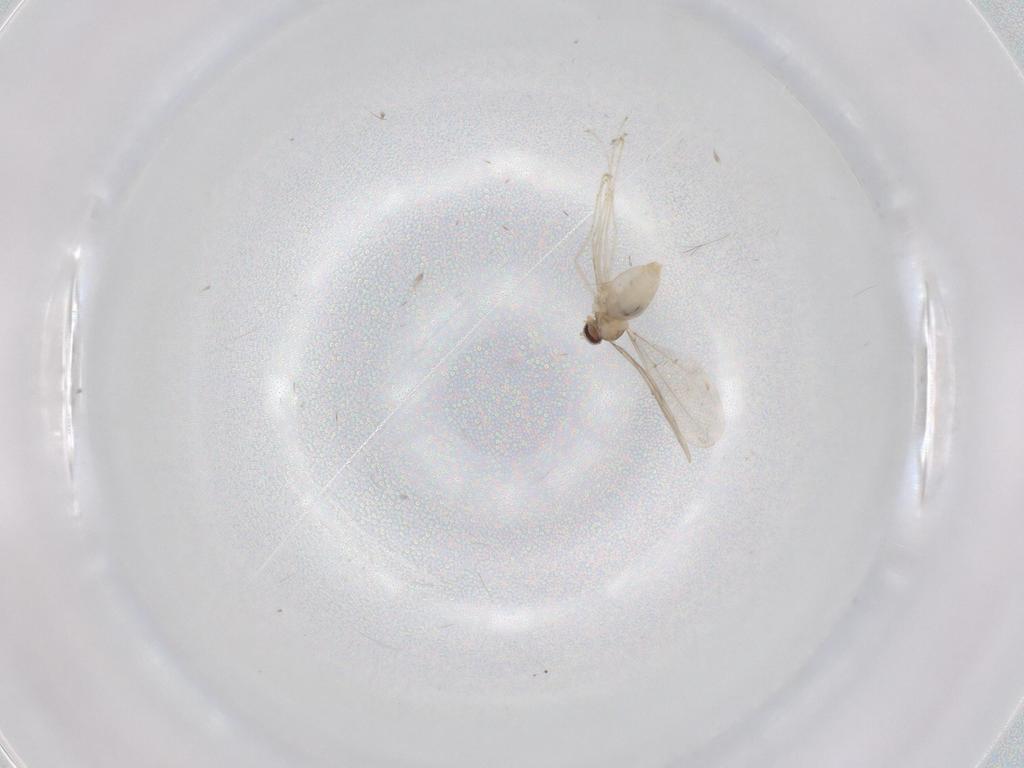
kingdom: Animalia
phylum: Arthropoda
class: Insecta
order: Diptera
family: Cecidomyiidae
